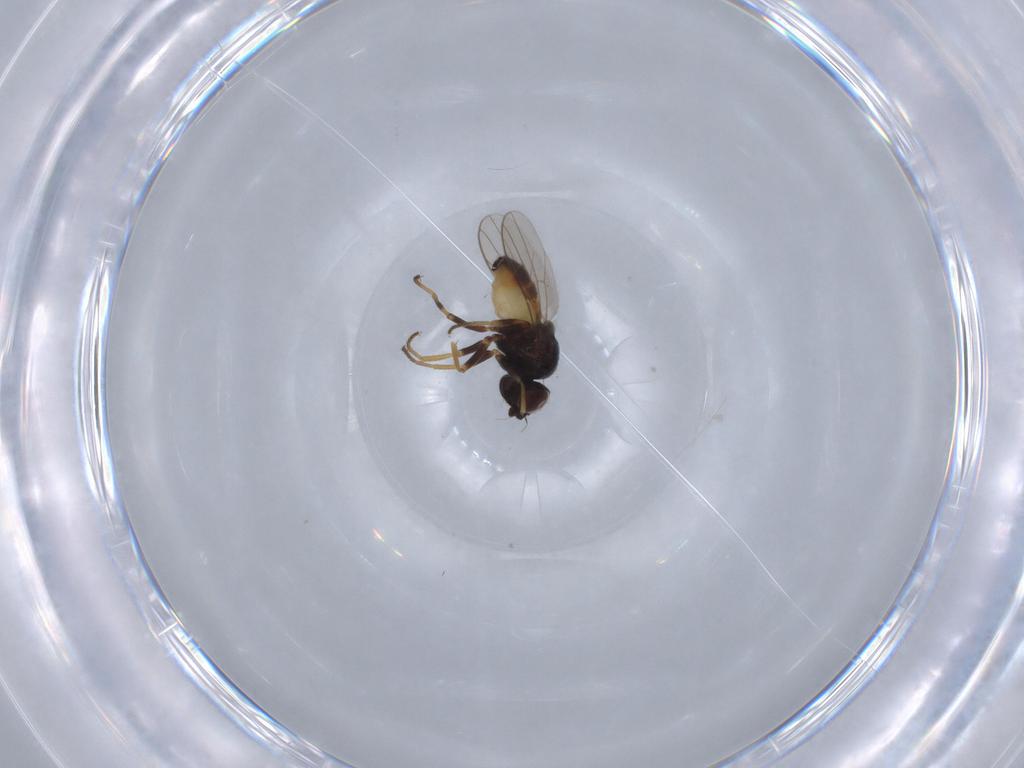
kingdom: Animalia
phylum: Arthropoda
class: Insecta
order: Diptera
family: Chloropidae
